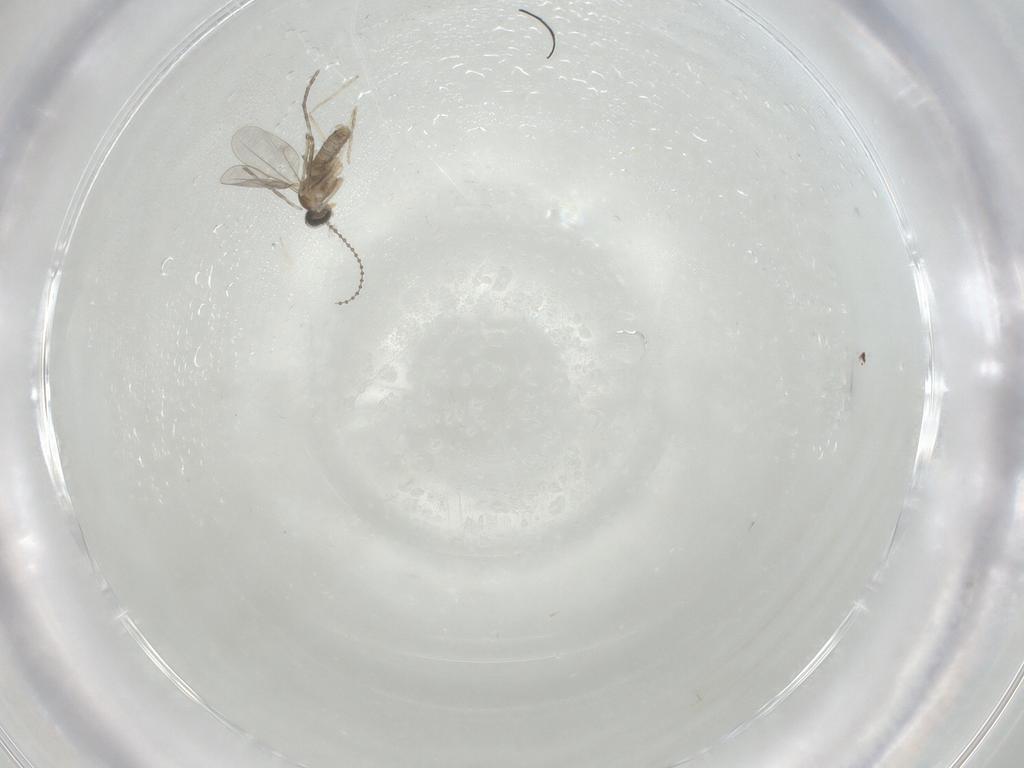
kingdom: Animalia
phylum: Arthropoda
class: Insecta
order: Diptera
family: Cecidomyiidae
